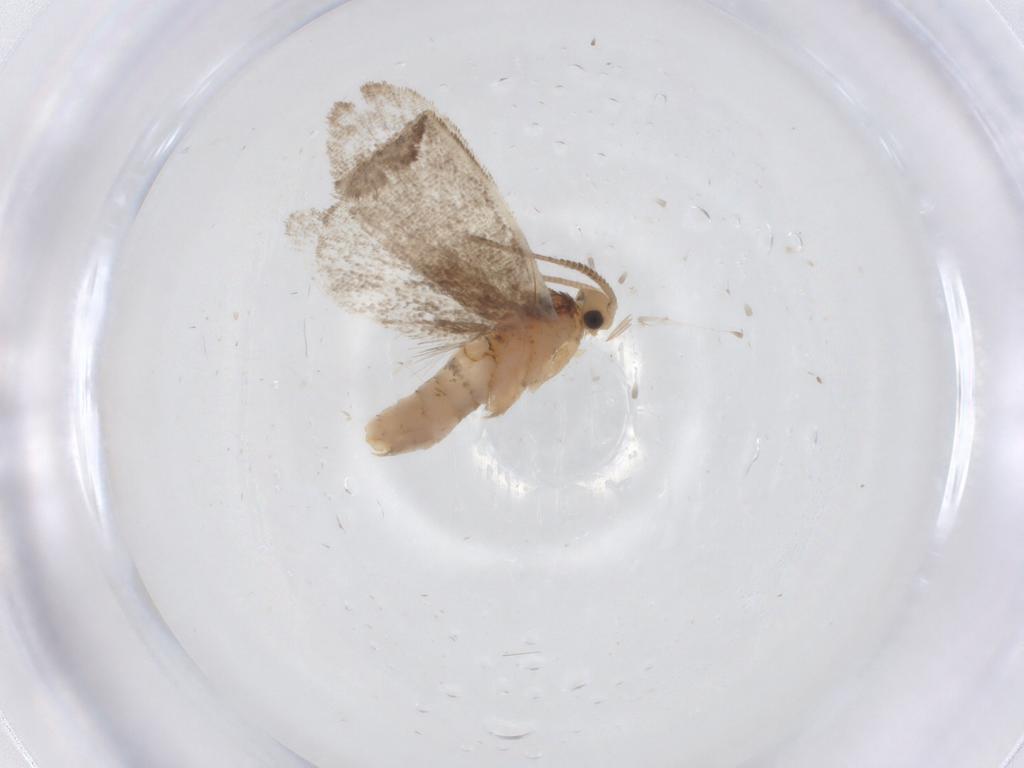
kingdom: Animalia
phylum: Arthropoda
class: Insecta
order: Lepidoptera
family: Dryadaulidae
